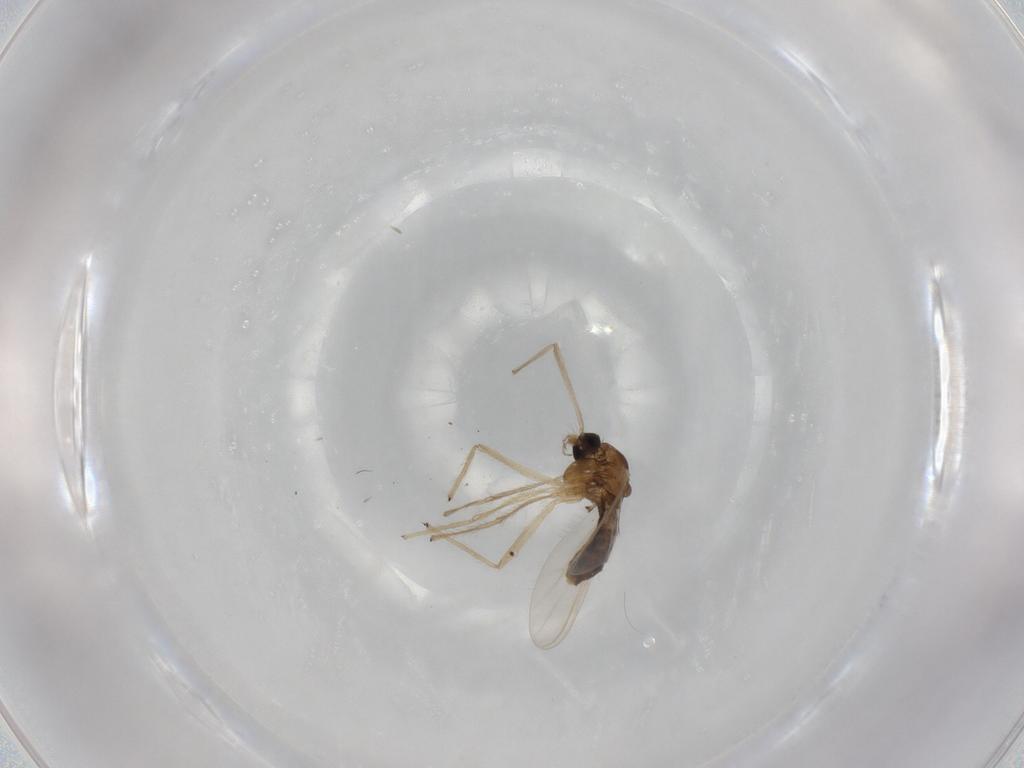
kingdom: Animalia
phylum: Arthropoda
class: Insecta
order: Diptera
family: Chironomidae
